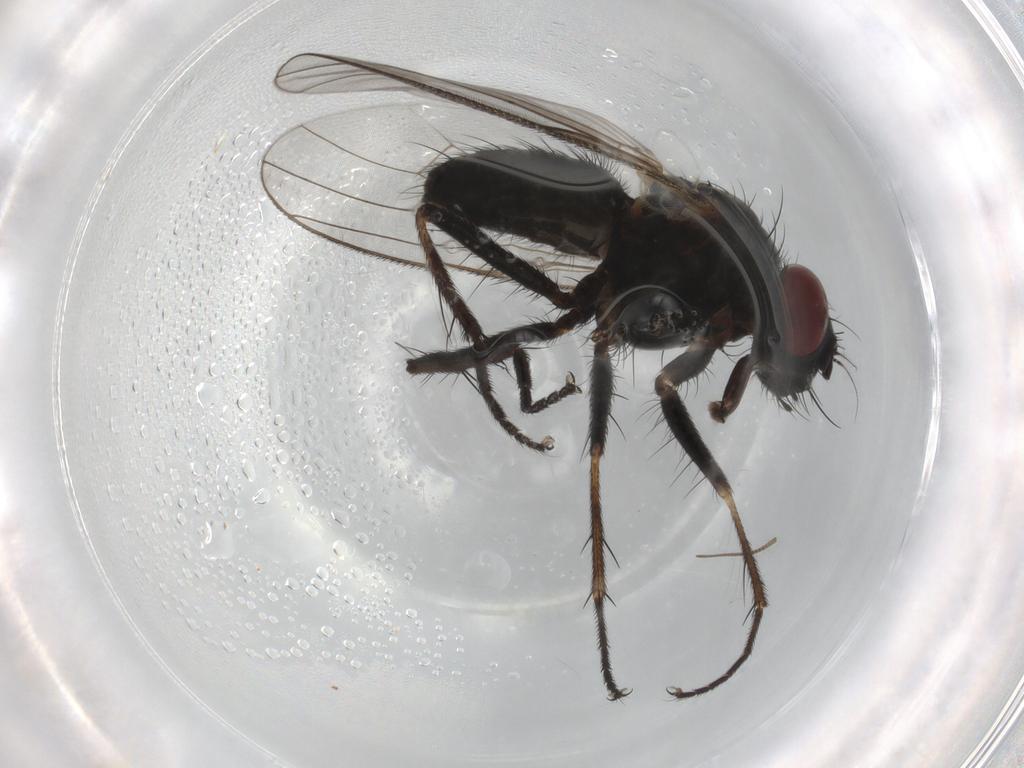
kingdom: Animalia
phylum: Arthropoda
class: Insecta
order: Diptera
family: Muscidae
